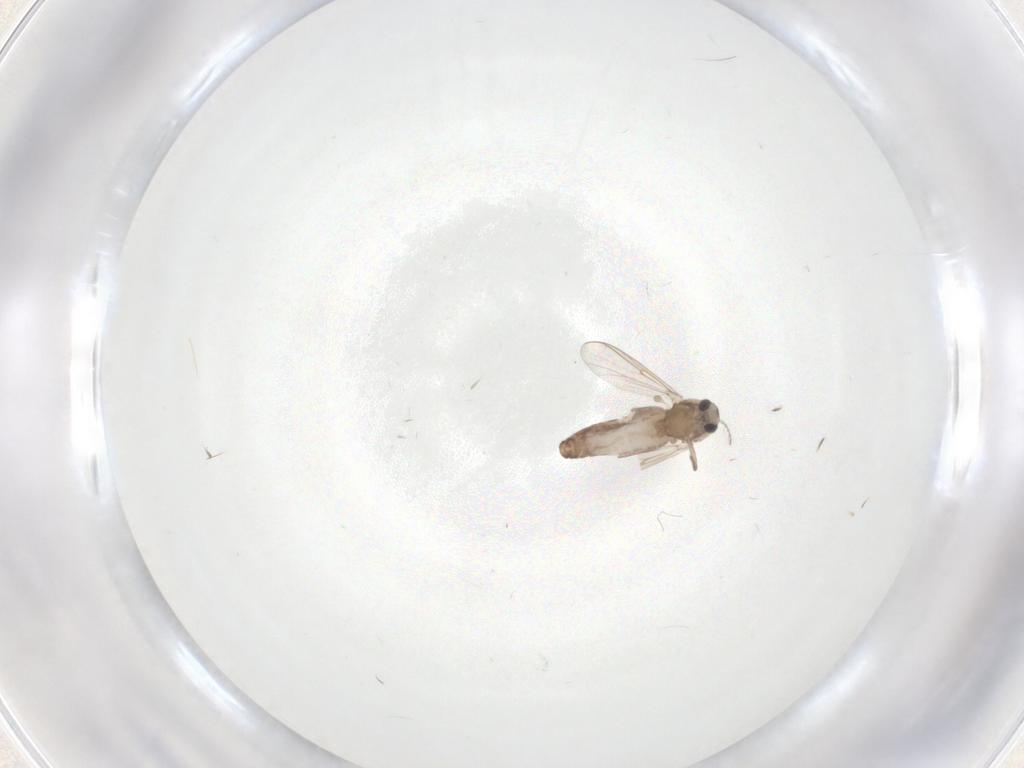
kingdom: Animalia
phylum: Arthropoda
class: Insecta
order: Diptera
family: Chironomidae
